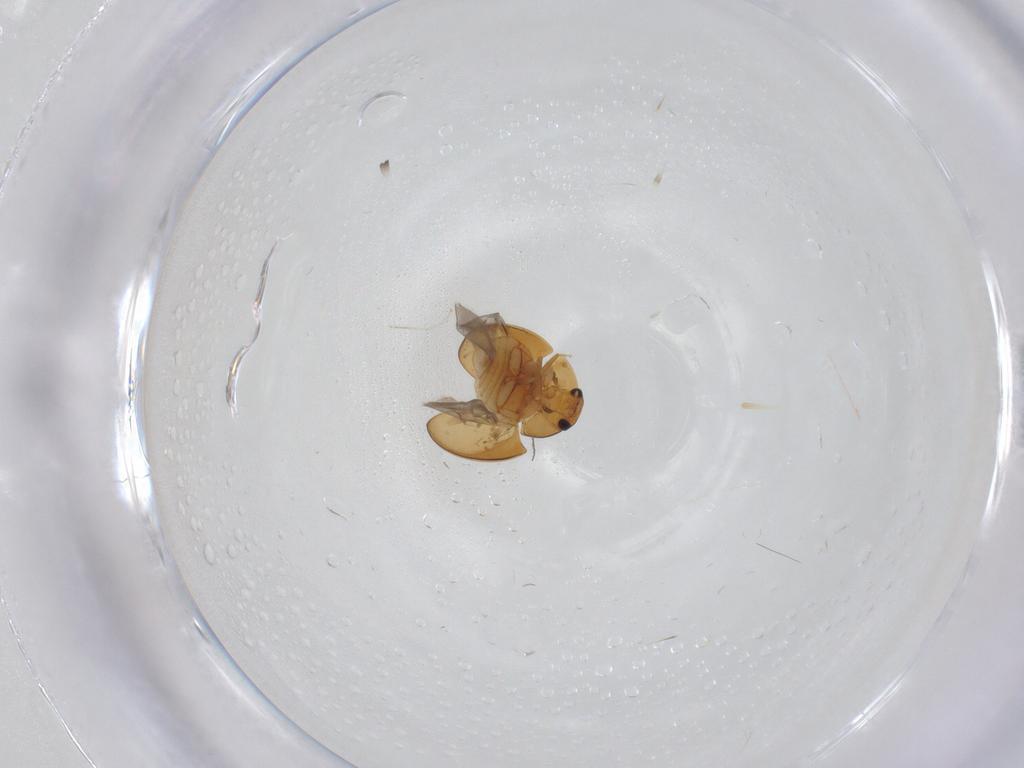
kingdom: Animalia
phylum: Arthropoda
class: Insecta
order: Coleoptera
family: Phalacridae
